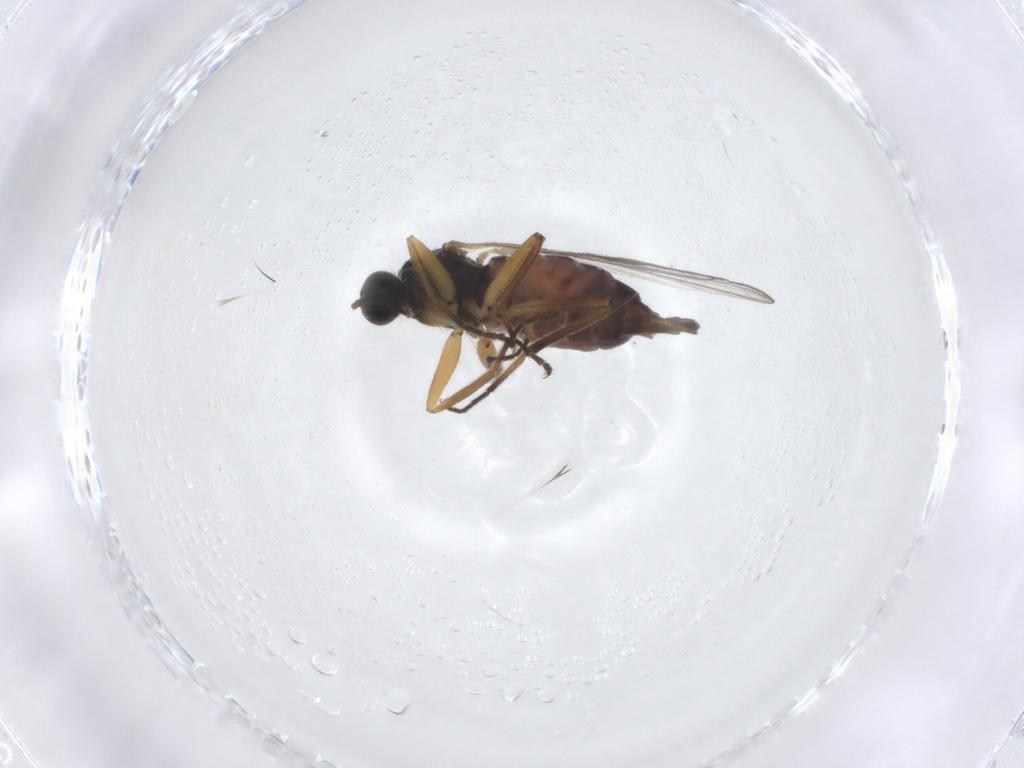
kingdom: Animalia
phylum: Arthropoda
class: Insecta
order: Diptera
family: Hybotidae
